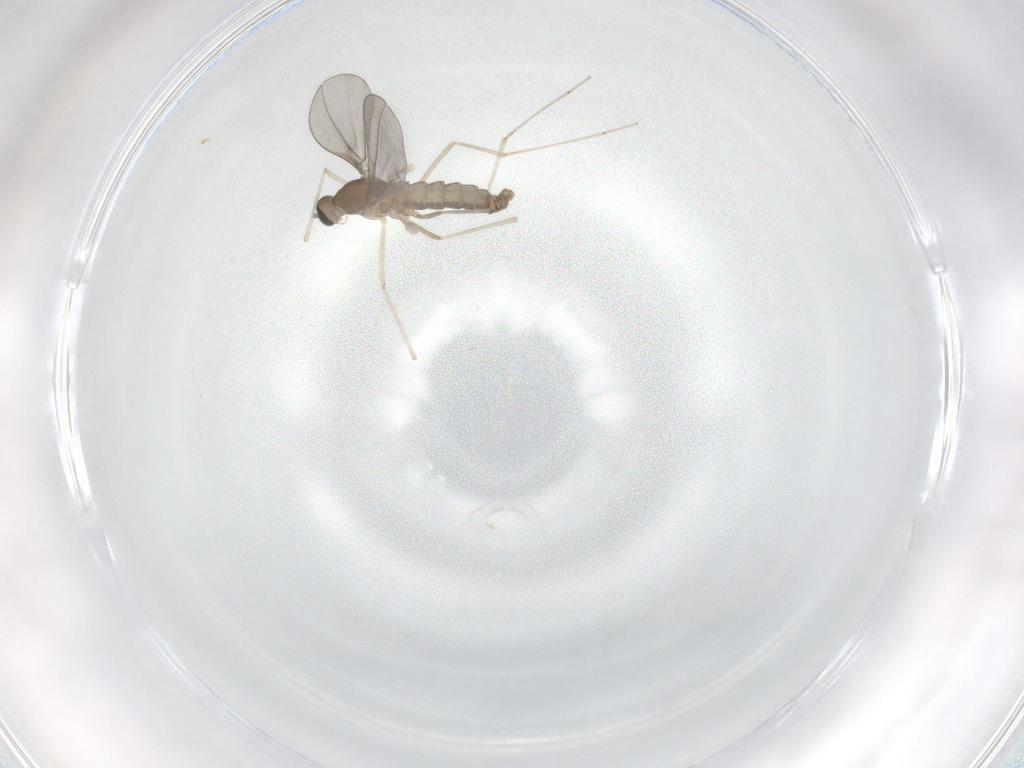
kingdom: Animalia
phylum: Arthropoda
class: Insecta
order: Diptera
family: Cecidomyiidae
